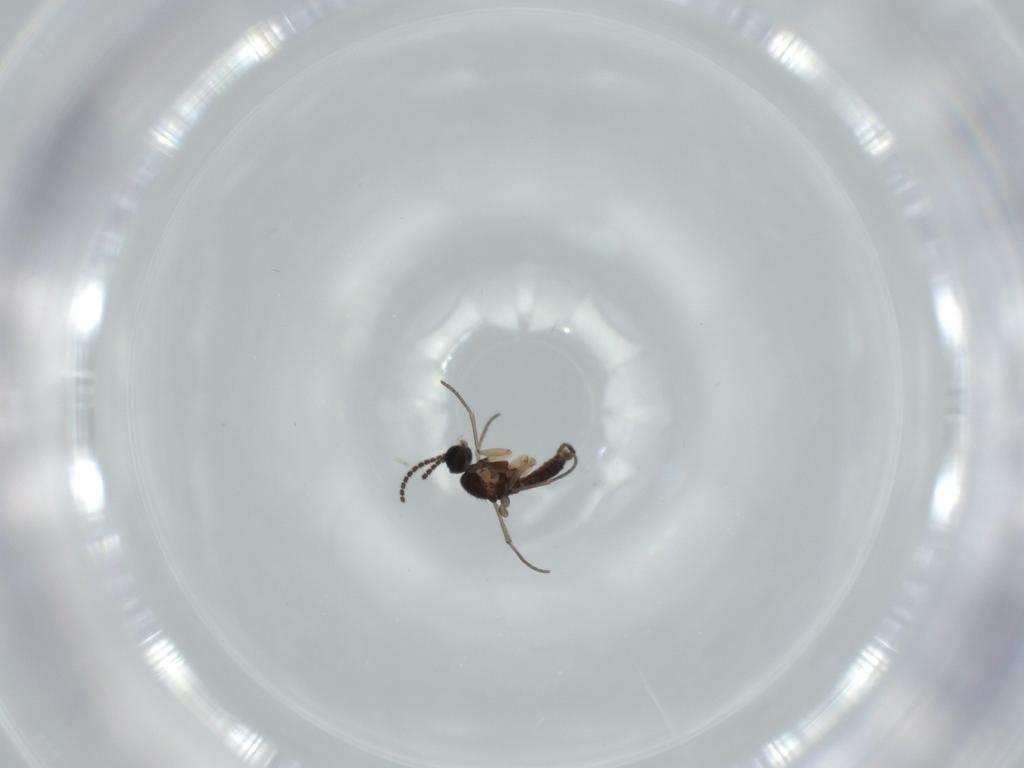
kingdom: Animalia
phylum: Arthropoda
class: Insecta
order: Diptera
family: Sciaridae
